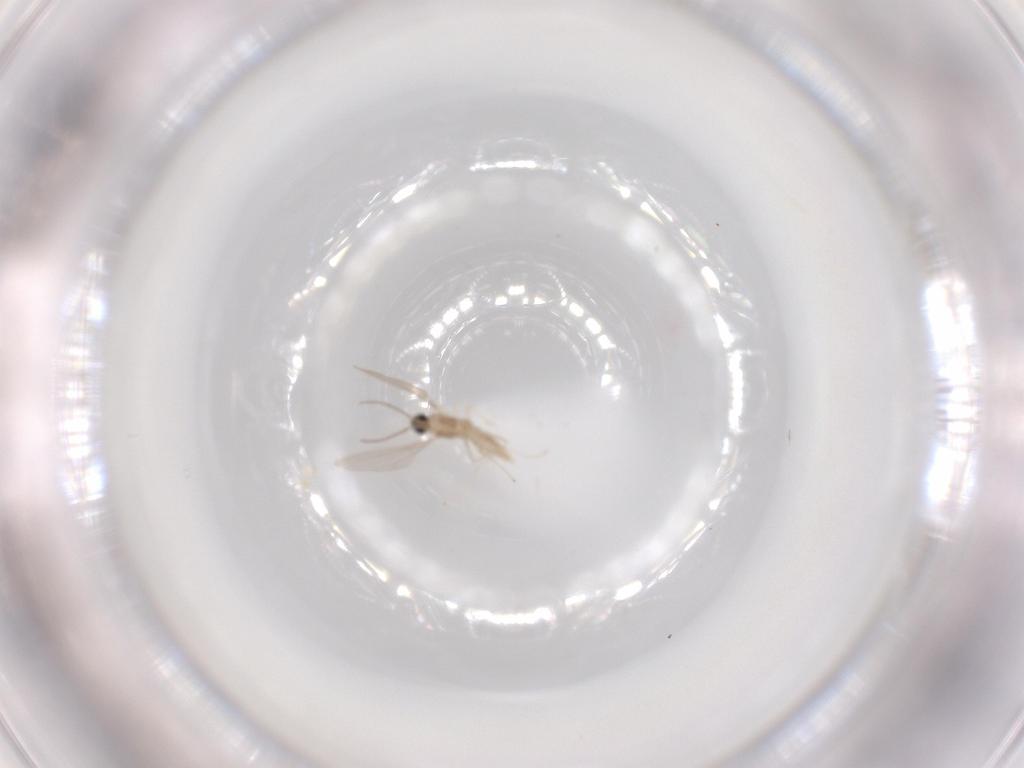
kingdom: Animalia
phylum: Arthropoda
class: Insecta
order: Diptera
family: Cecidomyiidae
